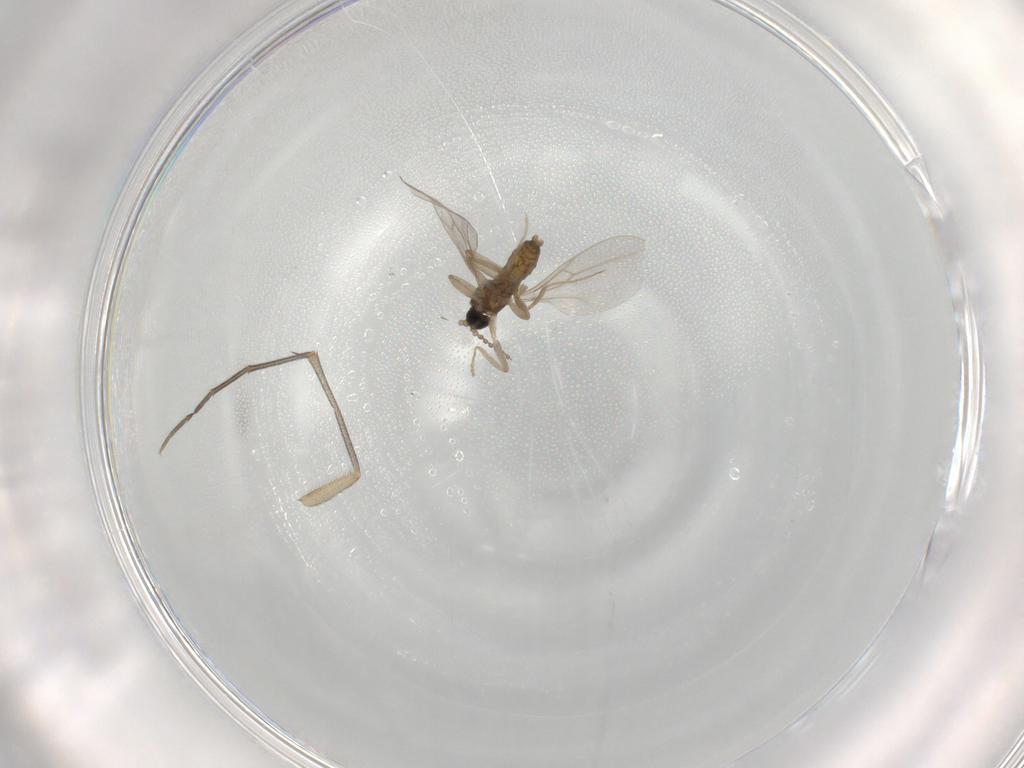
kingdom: Animalia
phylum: Arthropoda
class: Insecta
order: Diptera
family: Cecidomyiidae
